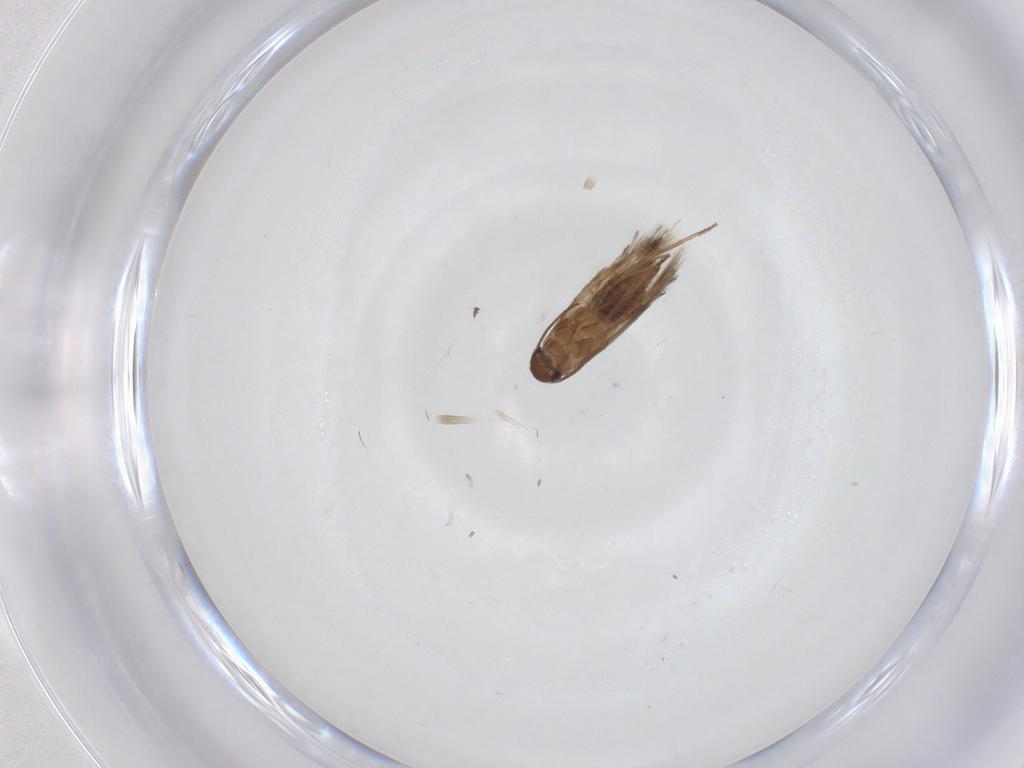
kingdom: Animalia
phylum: Arthropoda
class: Insecta
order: Lepidoptera
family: Heliozelidae
